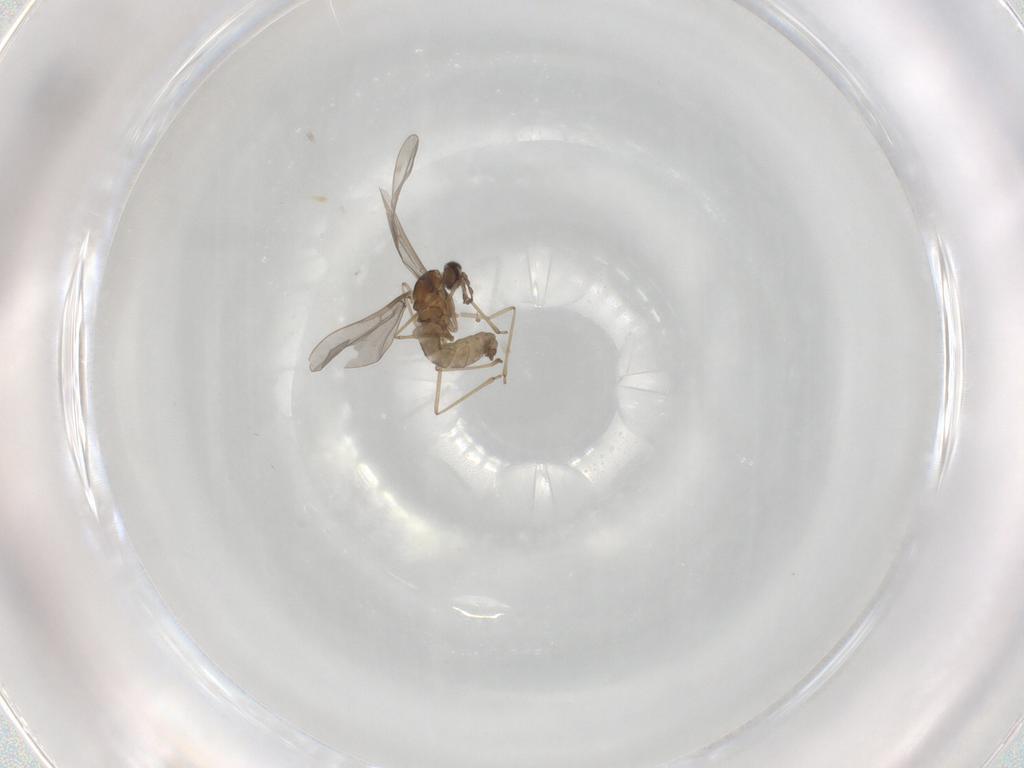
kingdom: Animalia
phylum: Arthropoda
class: Insecta
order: Diptera
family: Cecidomyiidae
